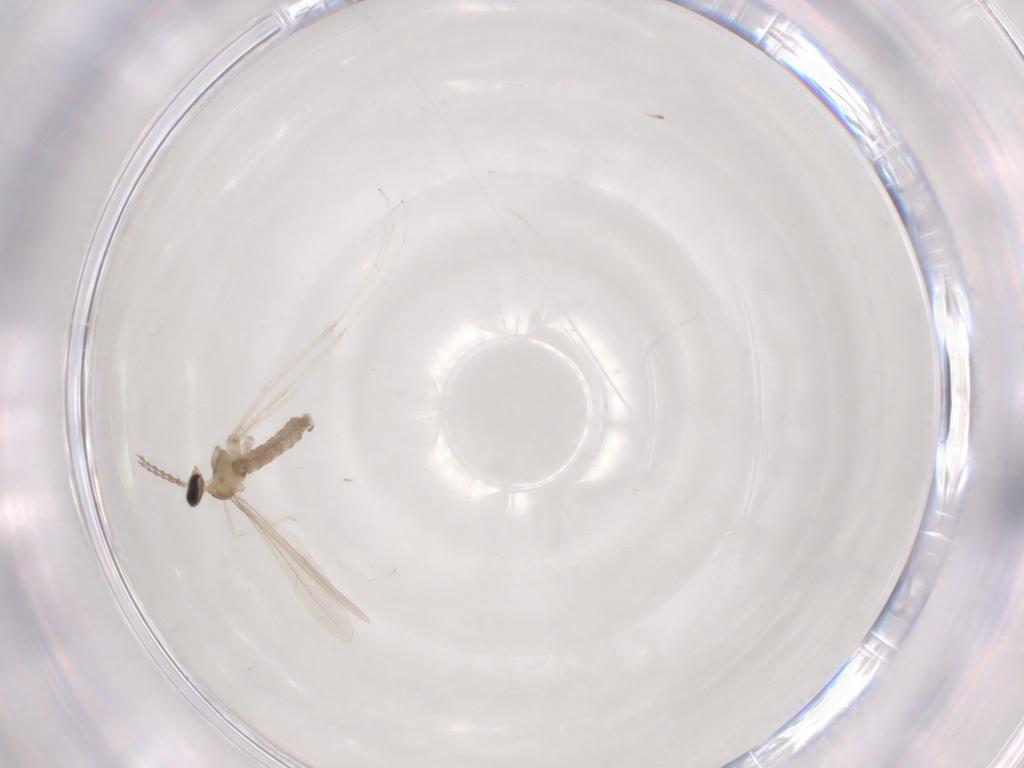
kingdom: Animalia
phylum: Arthropoda
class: Insecta
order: Diptera
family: Cecidomyiidae
